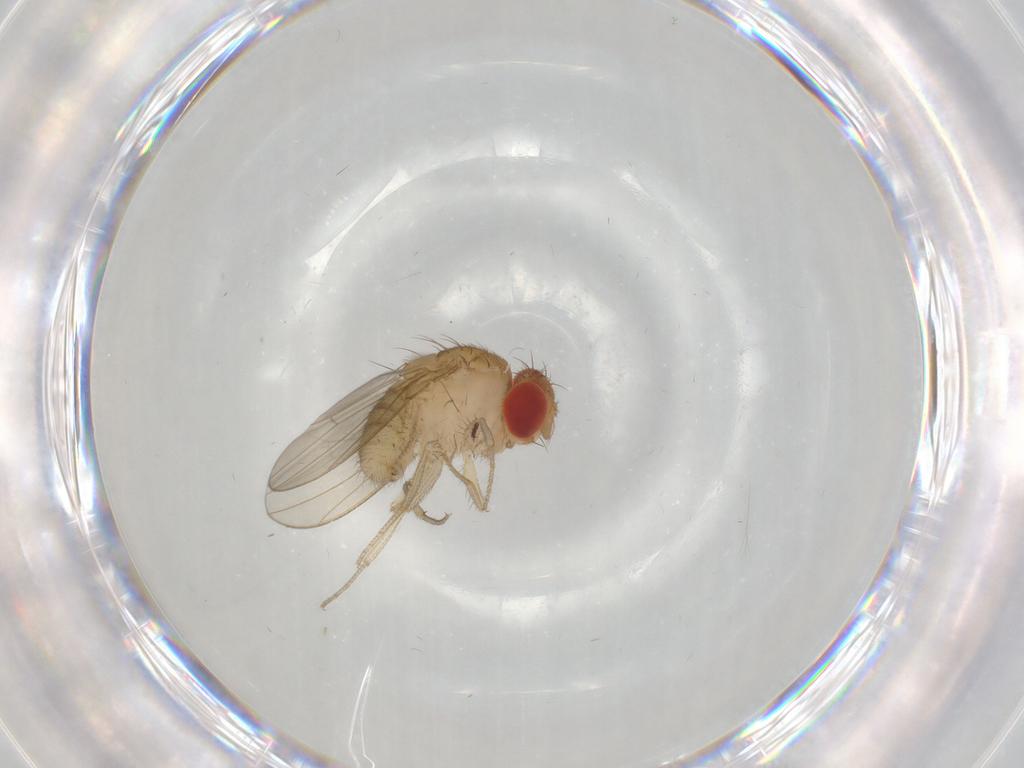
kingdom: Animalia
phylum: Arthropoda
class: Insecta
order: Diptera
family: Drosophilidae
